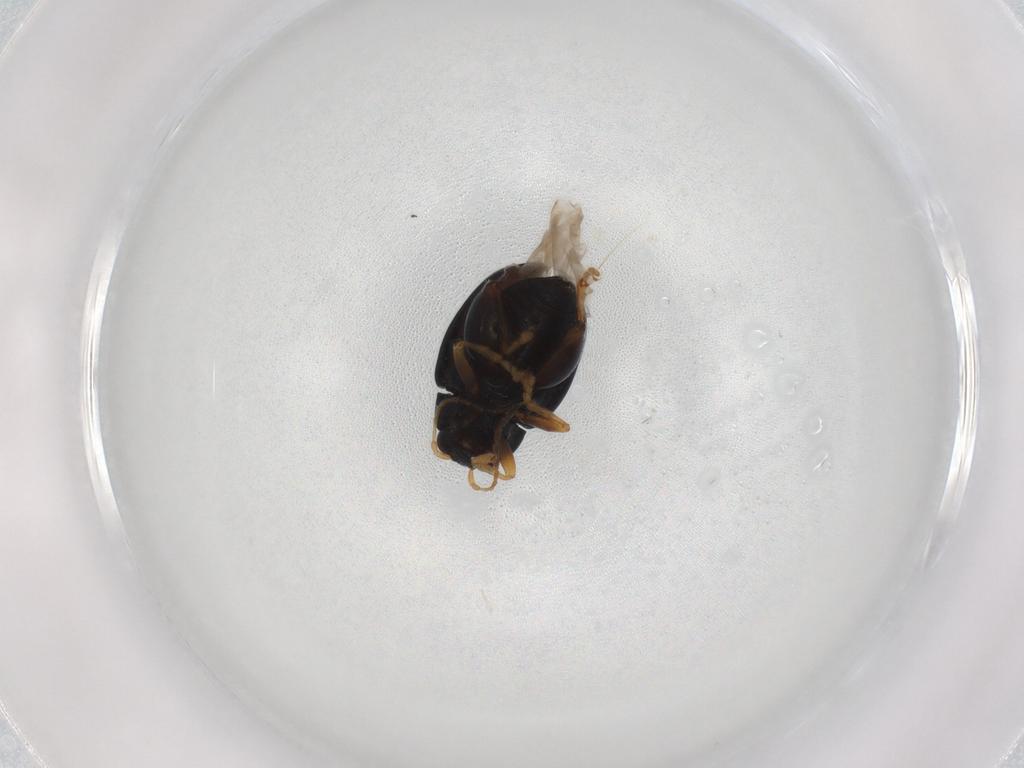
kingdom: Animalia
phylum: Arthropoda
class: Insecta
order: Coleoptera
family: Chrysomelidae
